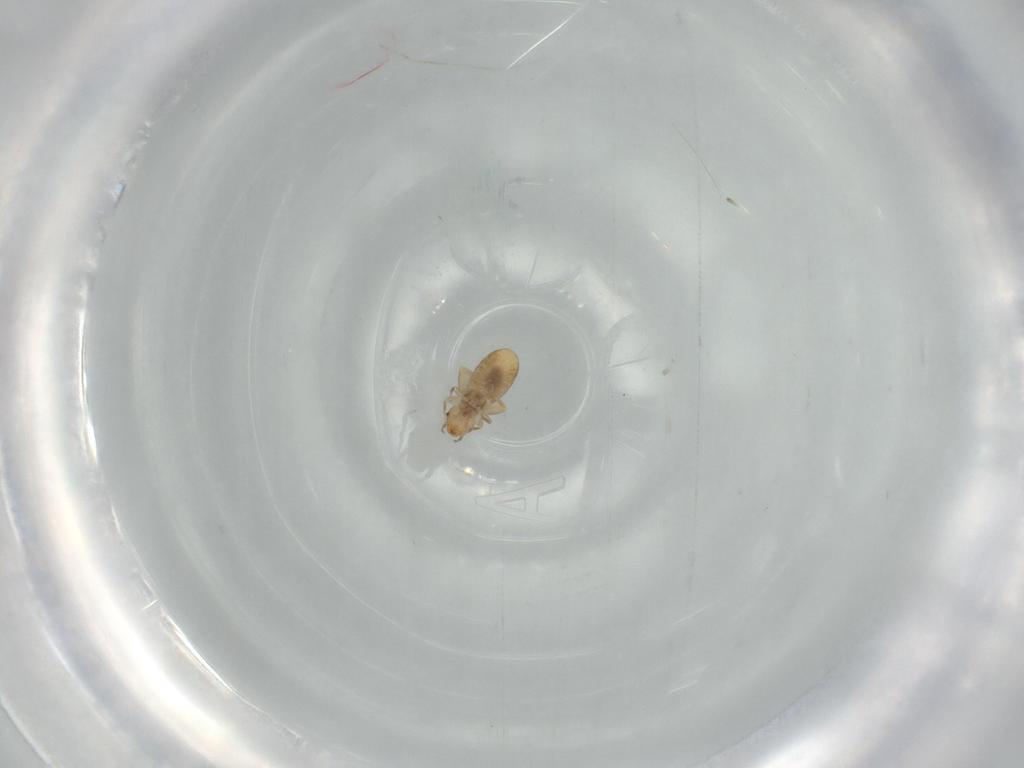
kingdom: Animalia
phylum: Arthropoda
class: Insecta
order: Psocodea
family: Liposcelididae
